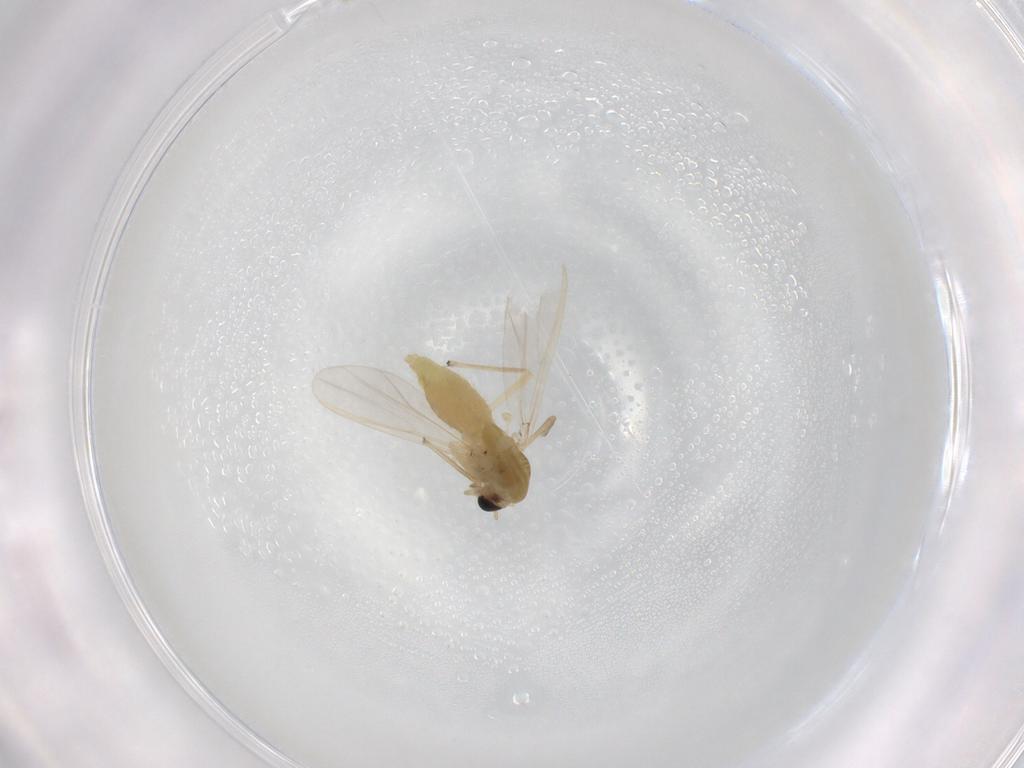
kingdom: Animalia
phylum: Arthropoda
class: Insecta
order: Diptera
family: Chironomidae
